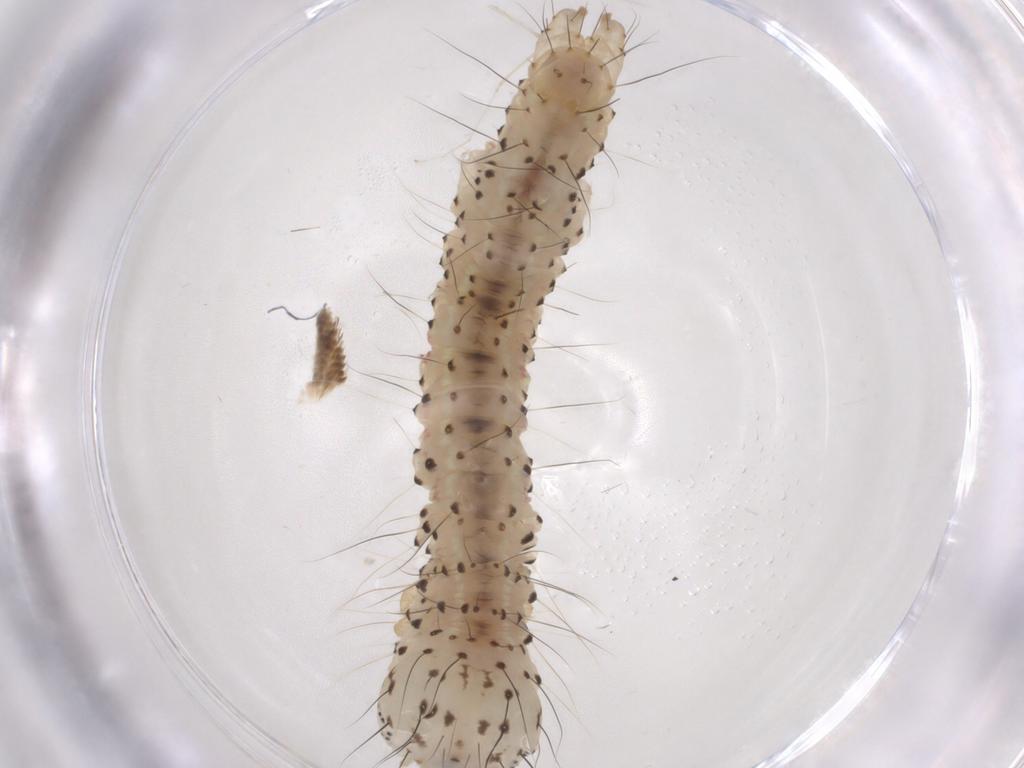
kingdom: Animalia
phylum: Arthropoda
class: Insecta
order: Lepidoptera
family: Erebidae
